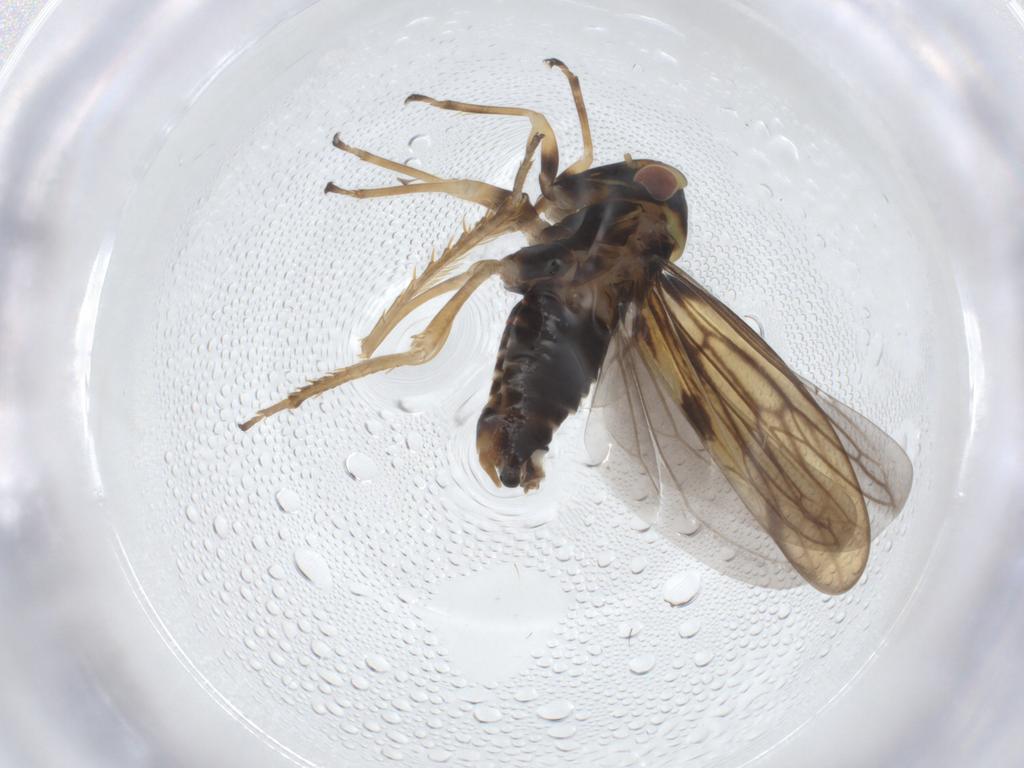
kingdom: Animalia
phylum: Arthropoda
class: Insecta
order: Hemiptera
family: Cicadellidae
